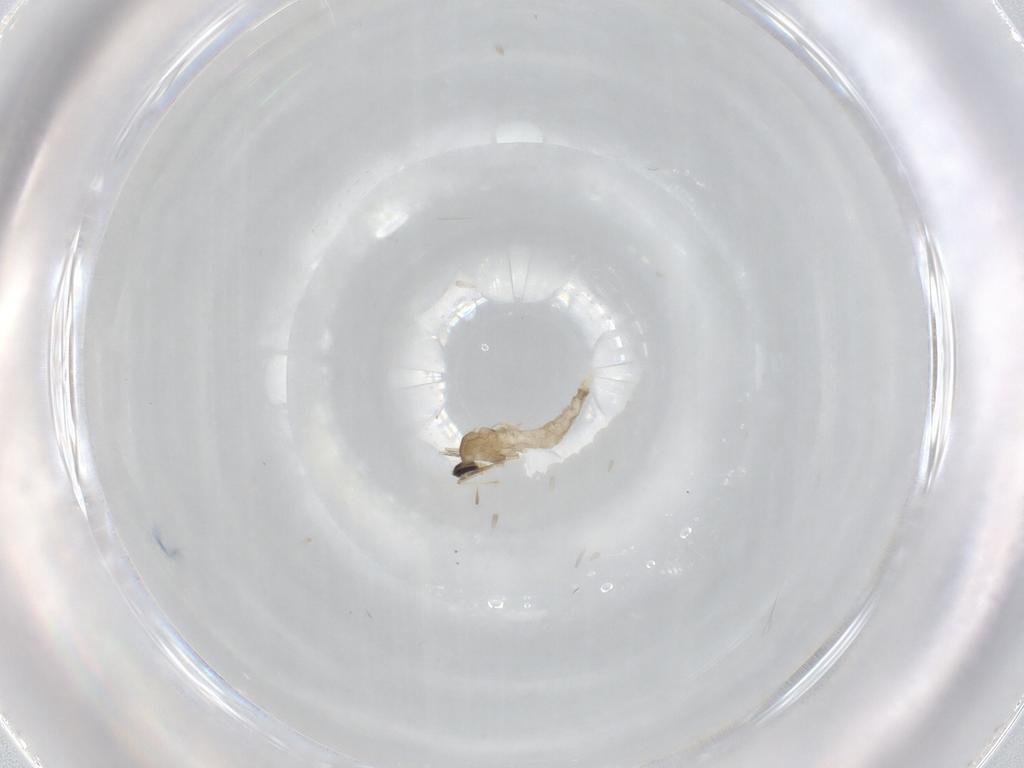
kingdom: Animalia
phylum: Arthropoda
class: Insecta
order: Diptera
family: Cecidomyiidae
